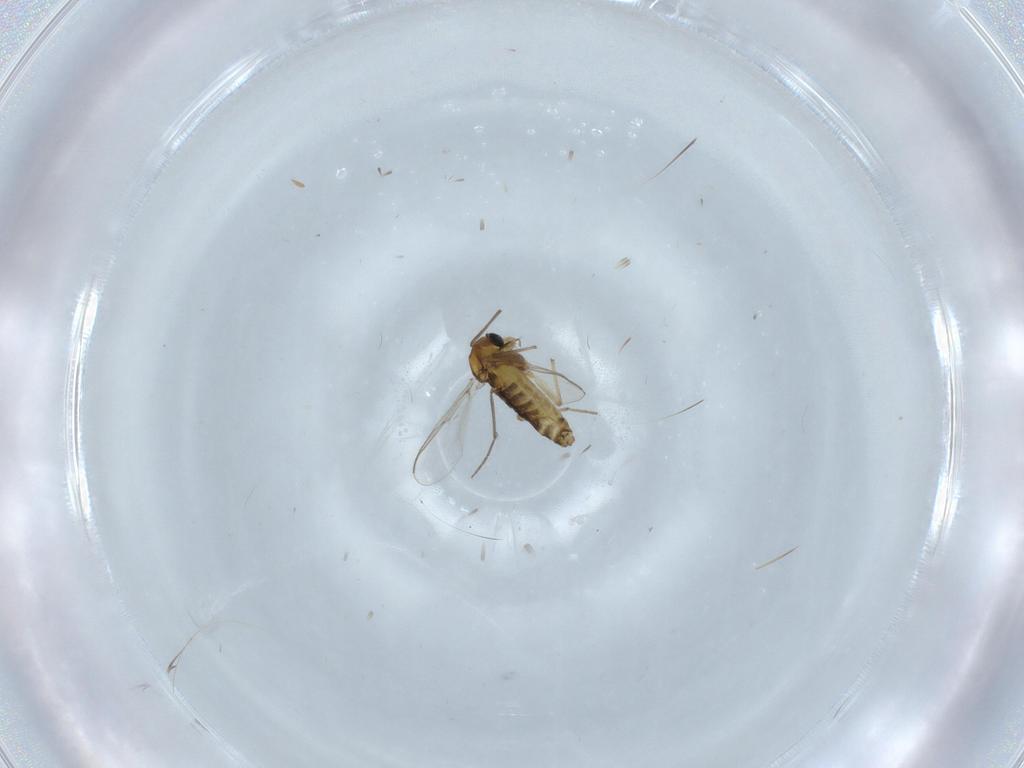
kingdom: Animalia
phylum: Arthropoda
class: Insecta
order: Diptera
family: Chironomidae
